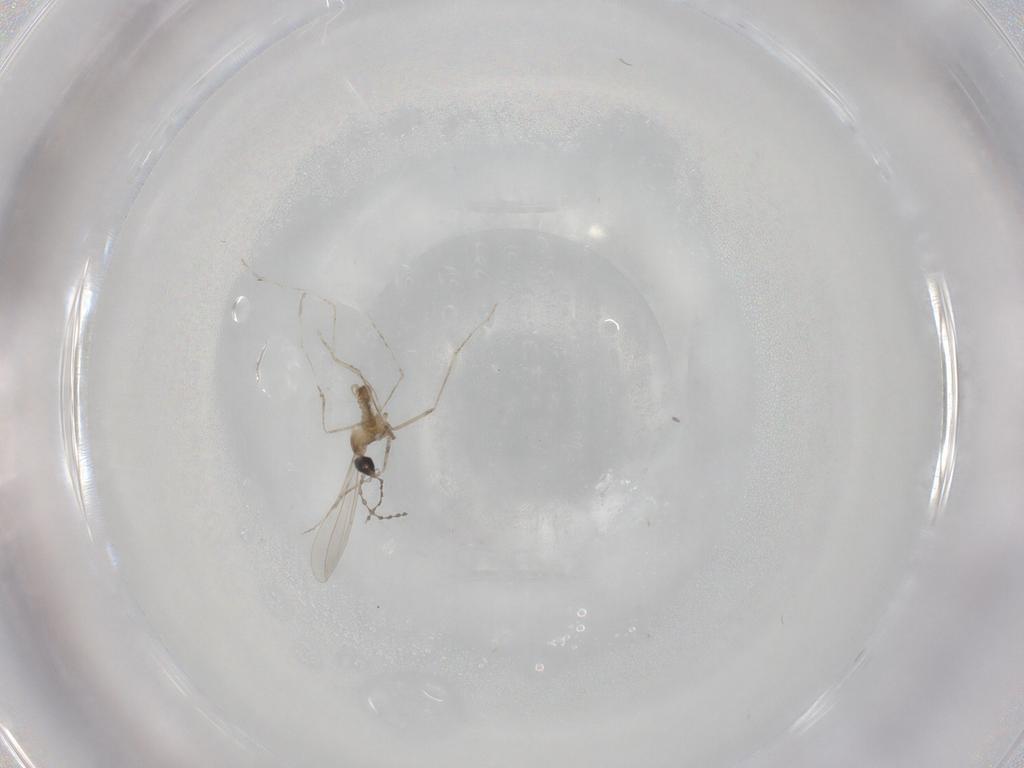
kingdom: Animalia
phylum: Arthropoda
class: Insecta
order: Diptera
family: Cecidomyiidae
